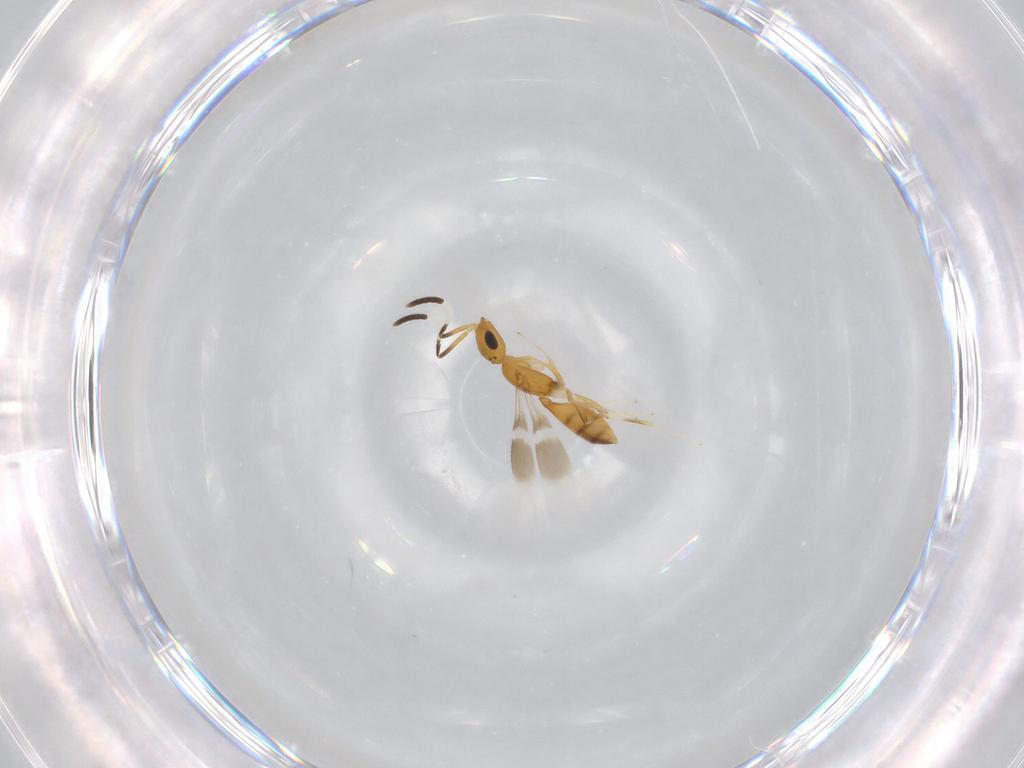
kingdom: Animalia
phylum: Arthropoda
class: Insecta
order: Hymenoptera
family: Scelionidae
